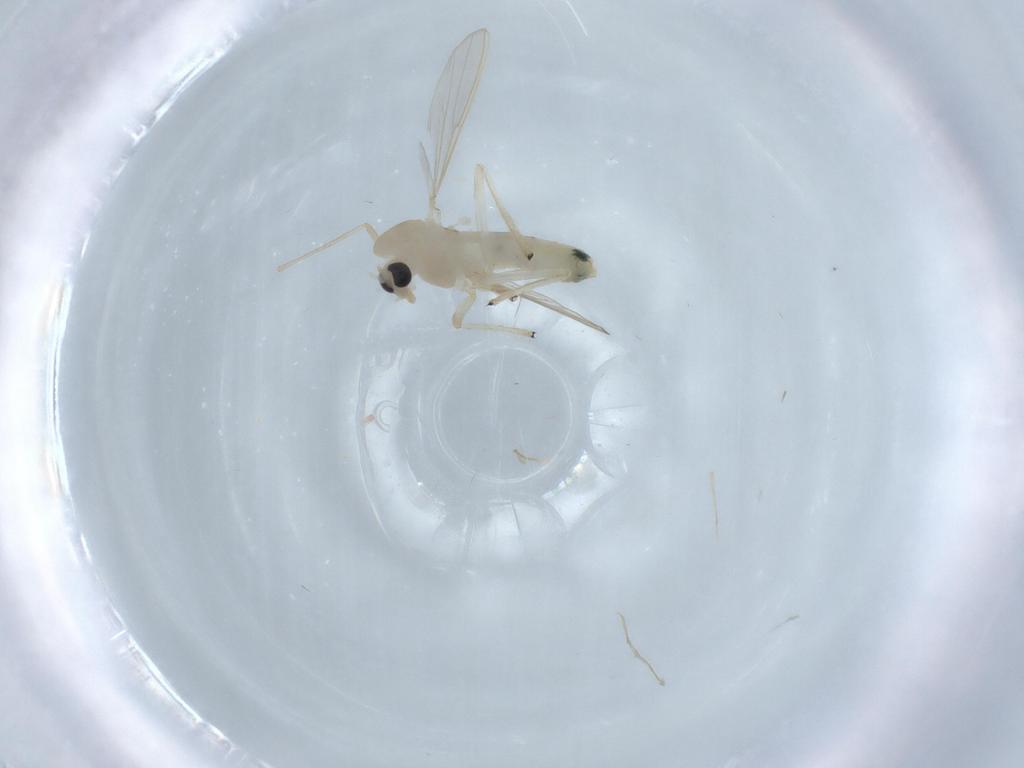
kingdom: Animalia
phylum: Arthropoda
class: Insecta
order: Diptera
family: Chironomidae
